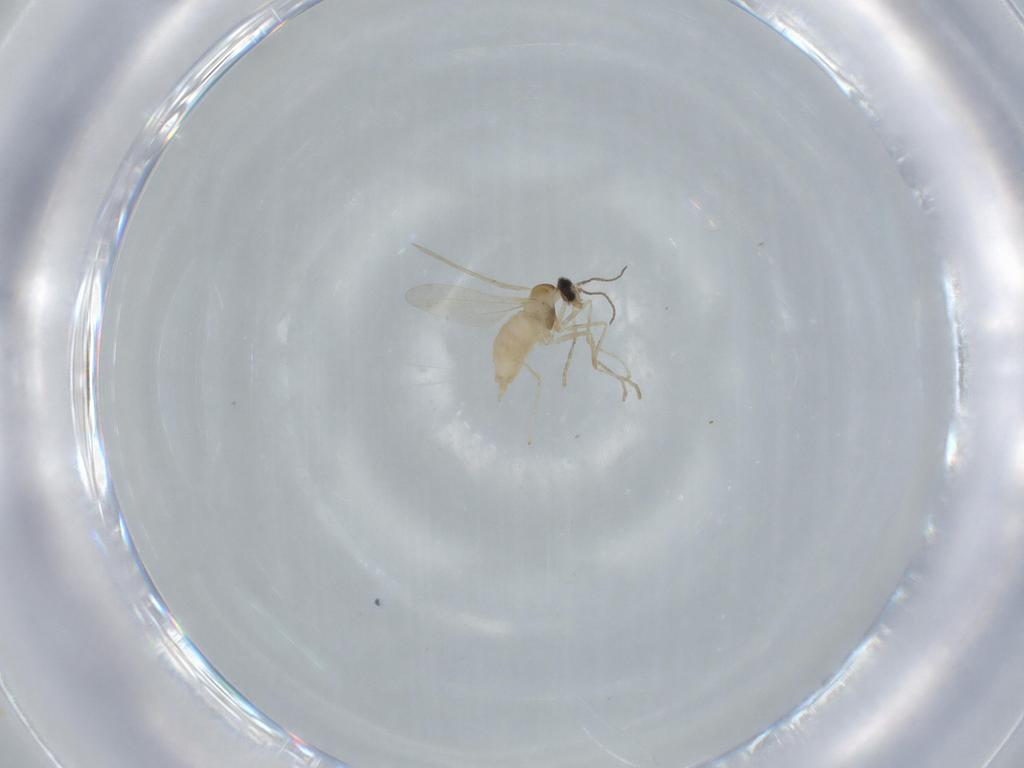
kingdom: Animalia
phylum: Arthropoda
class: Insecta
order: Diptera
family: Cecidomyiidae
